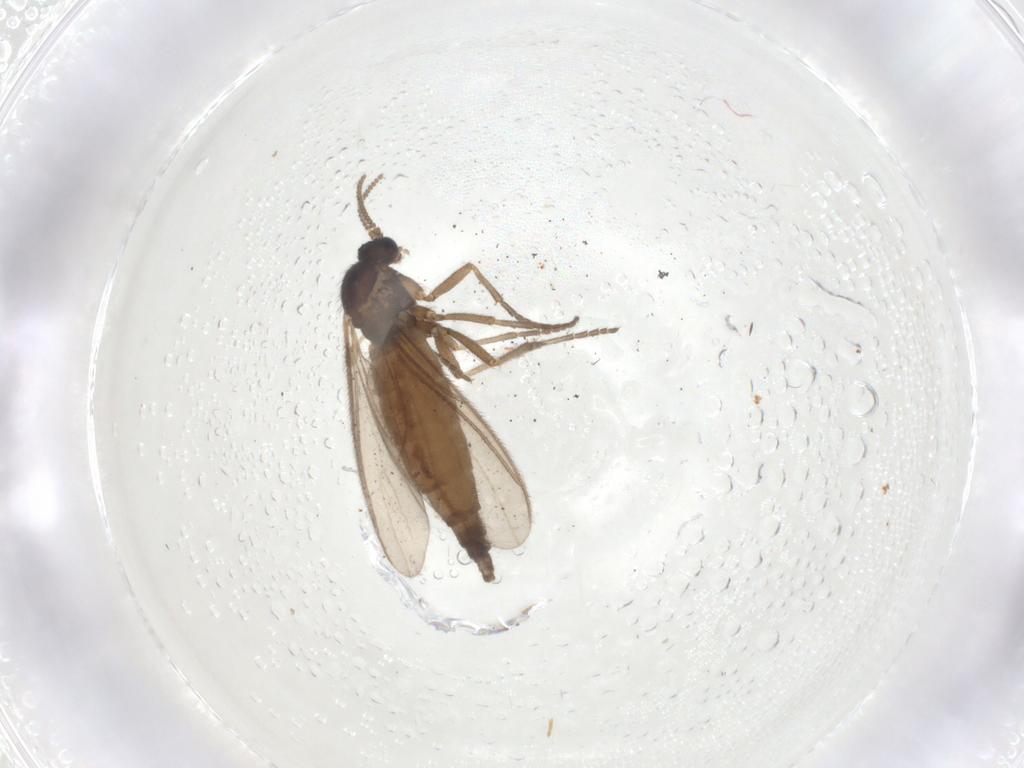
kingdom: Animalia
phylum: Arthropoda
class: Insecta
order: Diptera
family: Sciaridae
